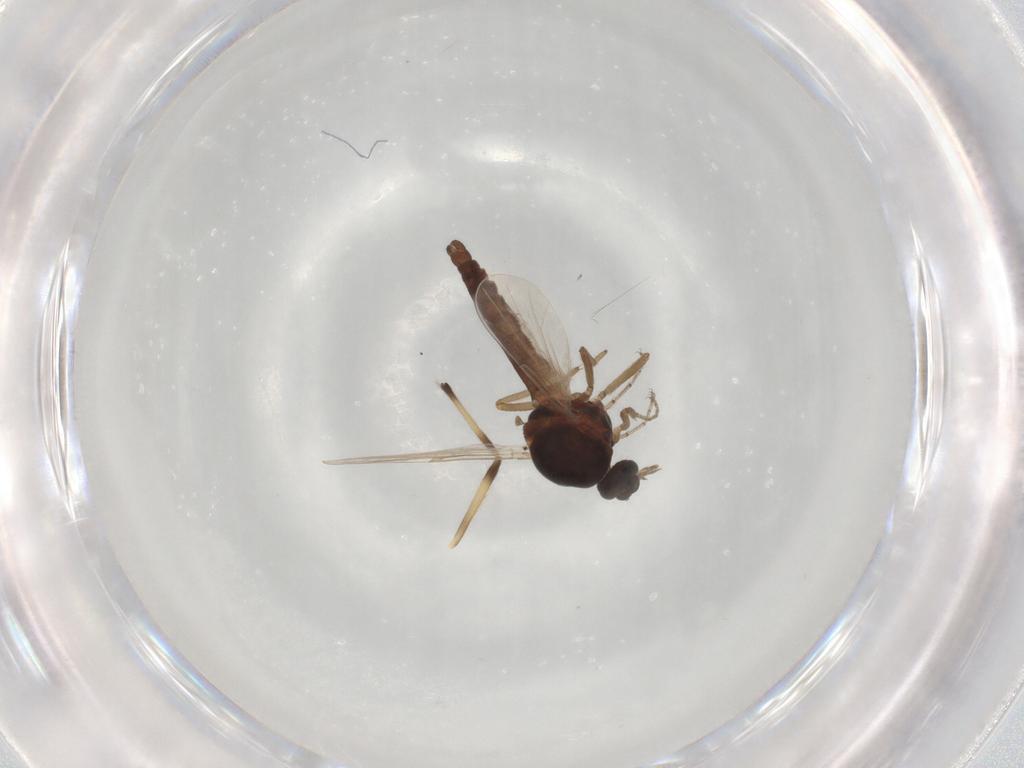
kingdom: Animalia
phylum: Arthropoda
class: Insecta
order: Diptera
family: Ceratopogonidae
